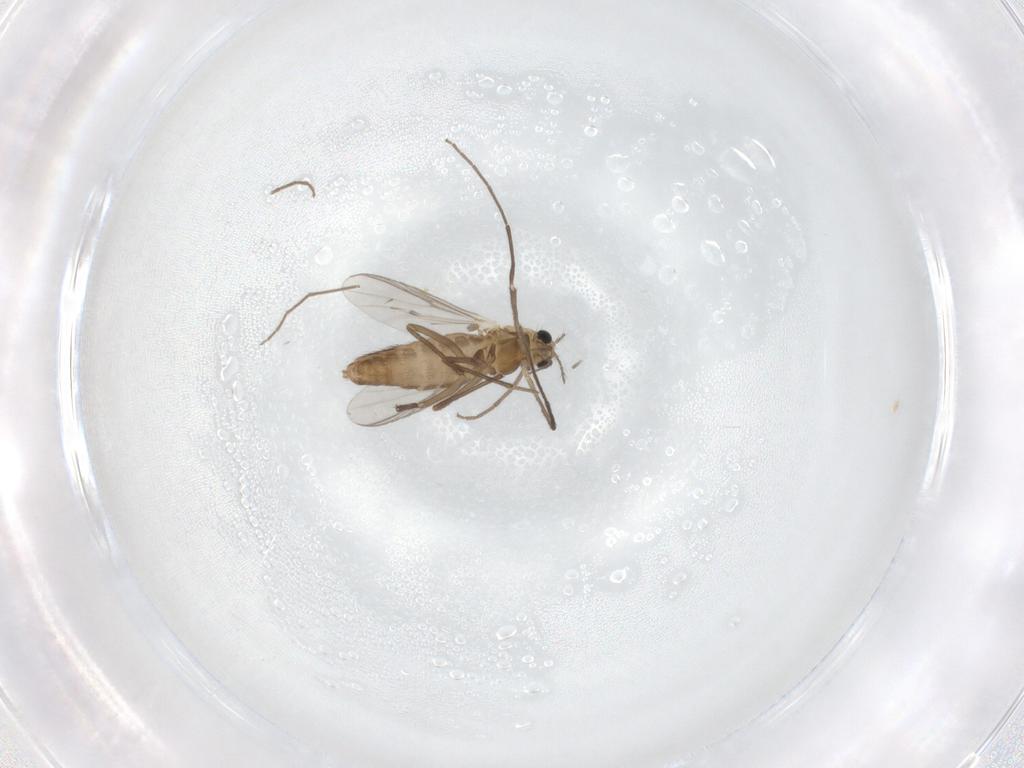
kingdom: Animalia
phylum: Arthropoda
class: Insecta
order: Diptera
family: Chironomidae
